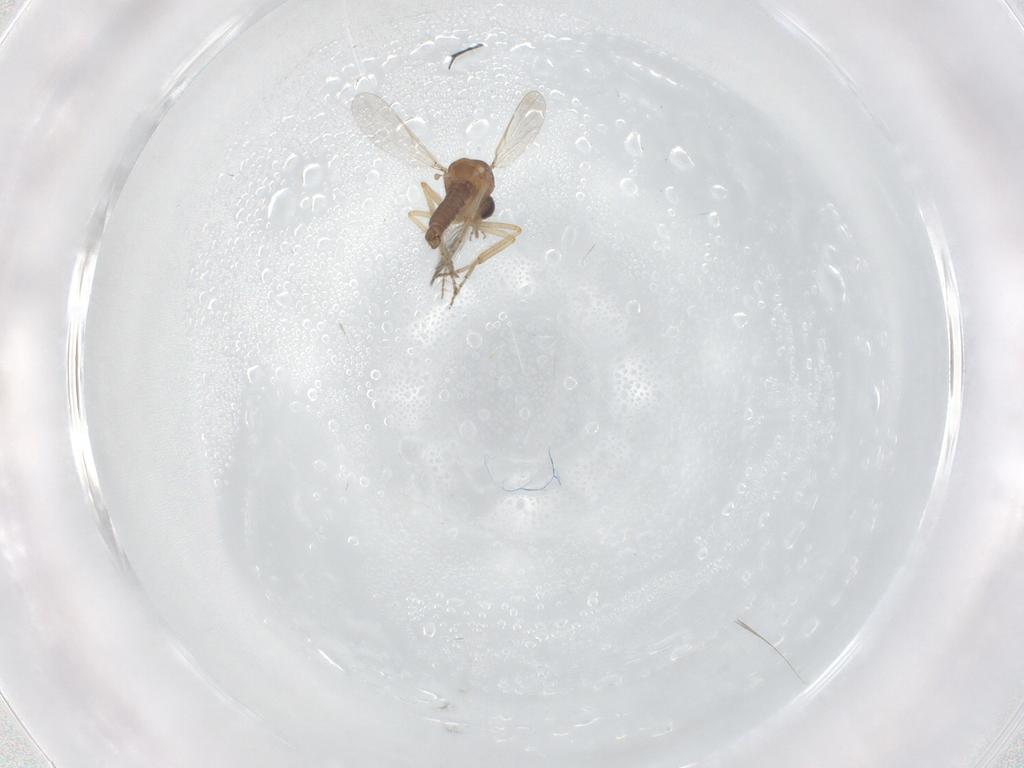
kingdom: Animalia
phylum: Arthropoda
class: Insecta
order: Diptera
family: Ceratopogonidae
